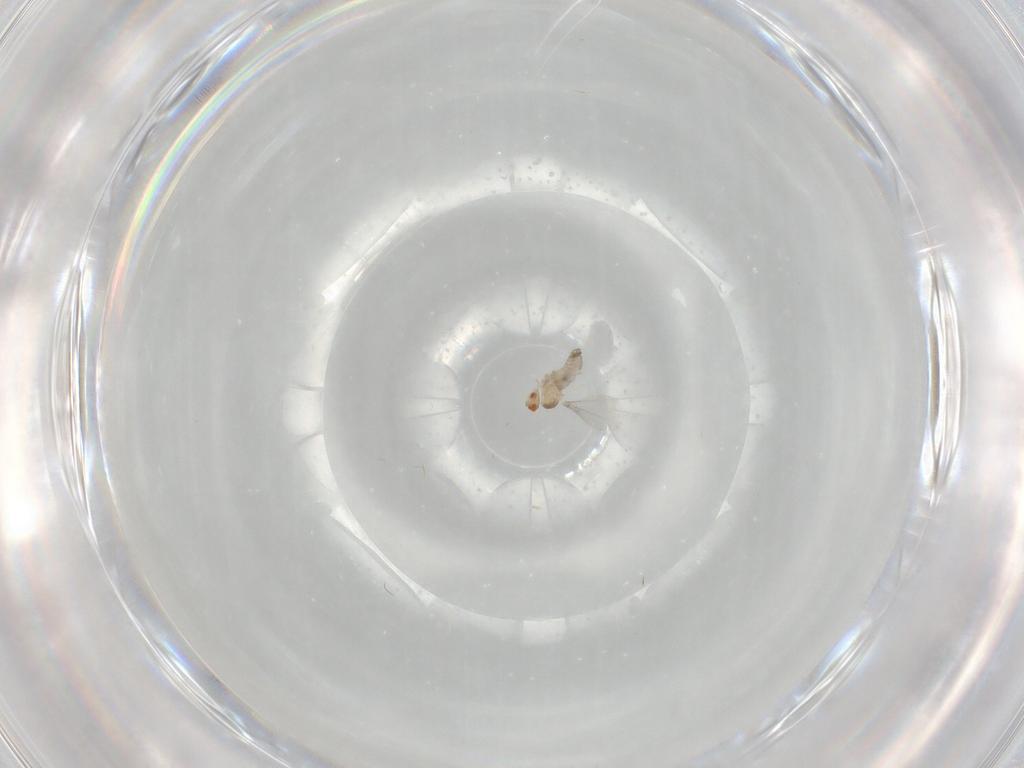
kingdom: Animalia
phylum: Arthropoda
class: Insecta
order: Diptera
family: Cecidomyiidae
